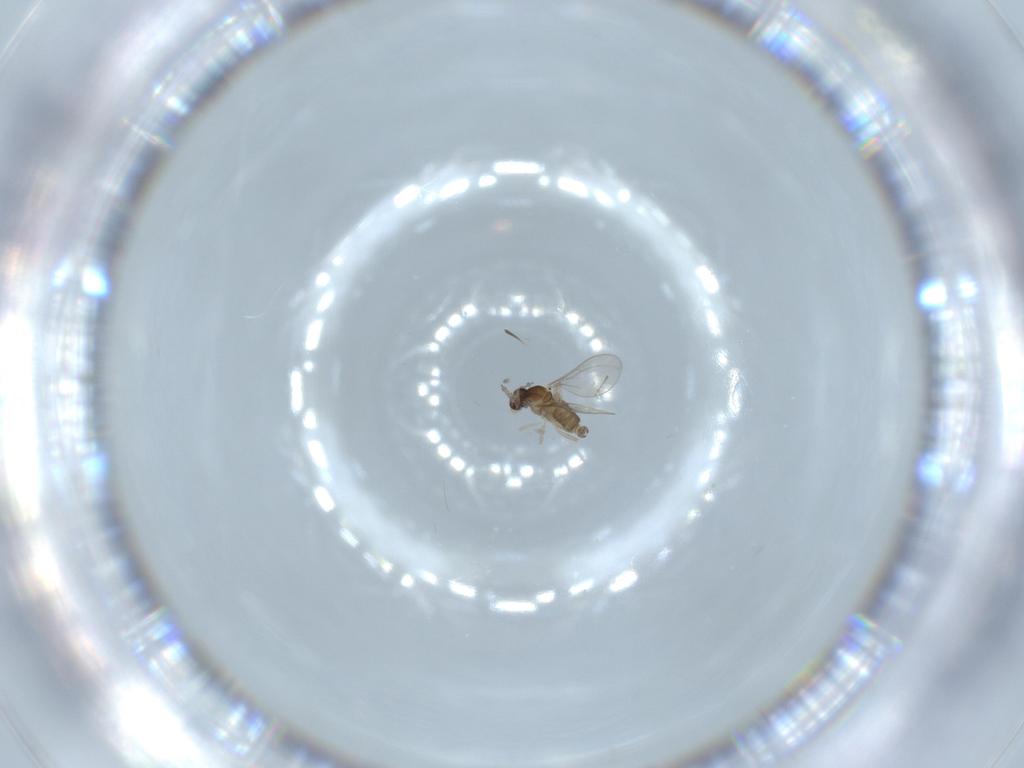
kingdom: Animalia
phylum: Arthropoda
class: Insecta
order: Diptera
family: Cecidomyiidae
